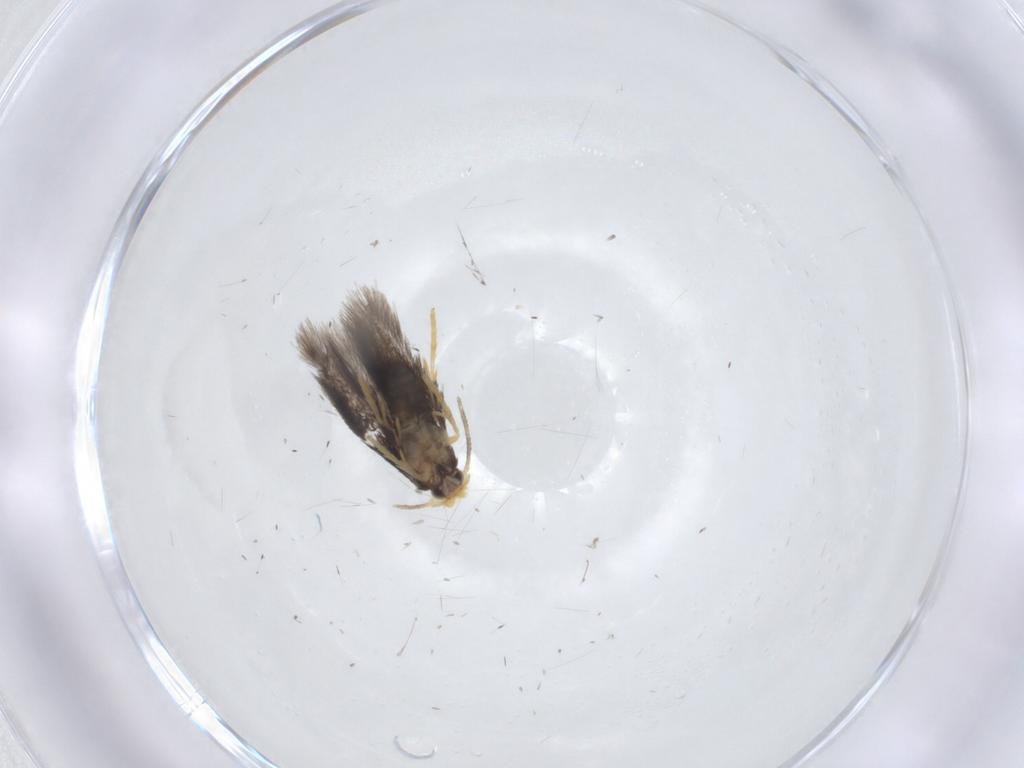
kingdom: Animalia
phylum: Arthropoda
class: Insecta
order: Lepidoptera
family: Nepticulidae
